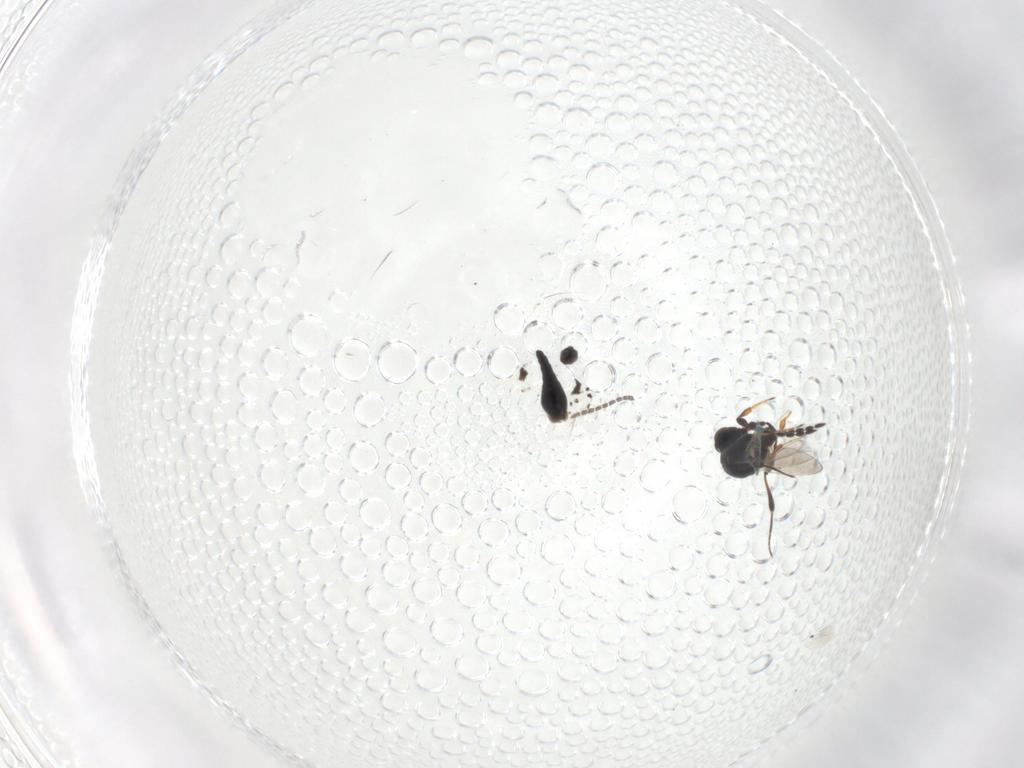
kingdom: Animalia
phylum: Arthropoda
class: Insecta
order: Hymenoptera
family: Platygastridae
